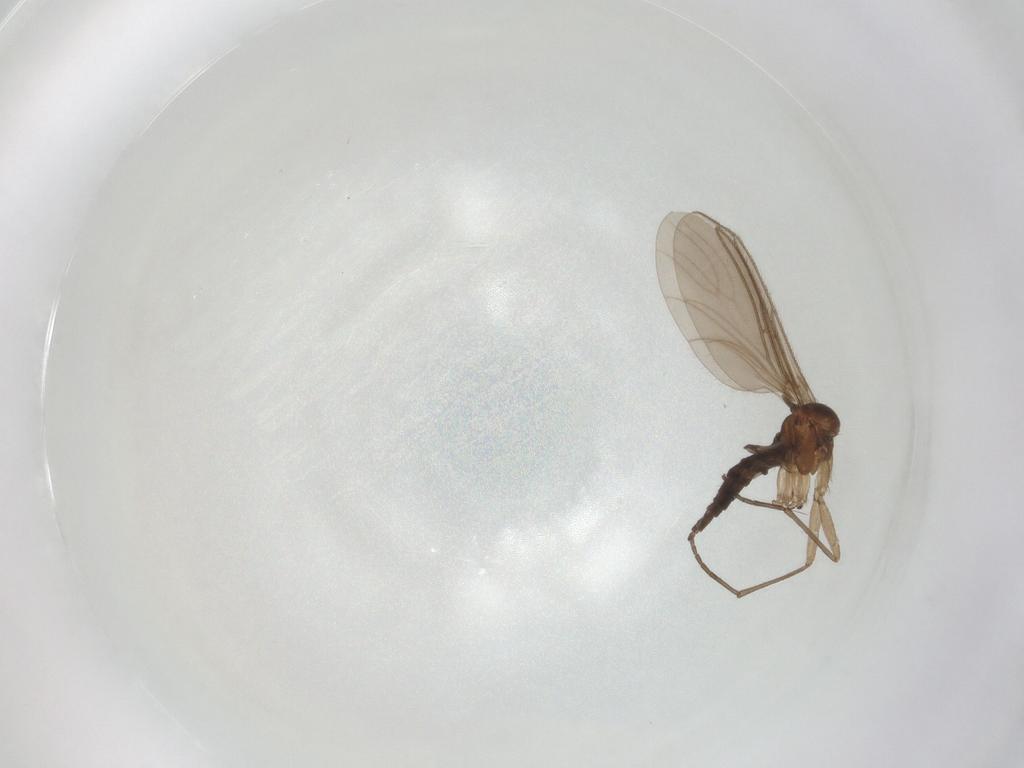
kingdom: Animalia
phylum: Arthropoda
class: Insecta
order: Diptera
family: Sciaridae
